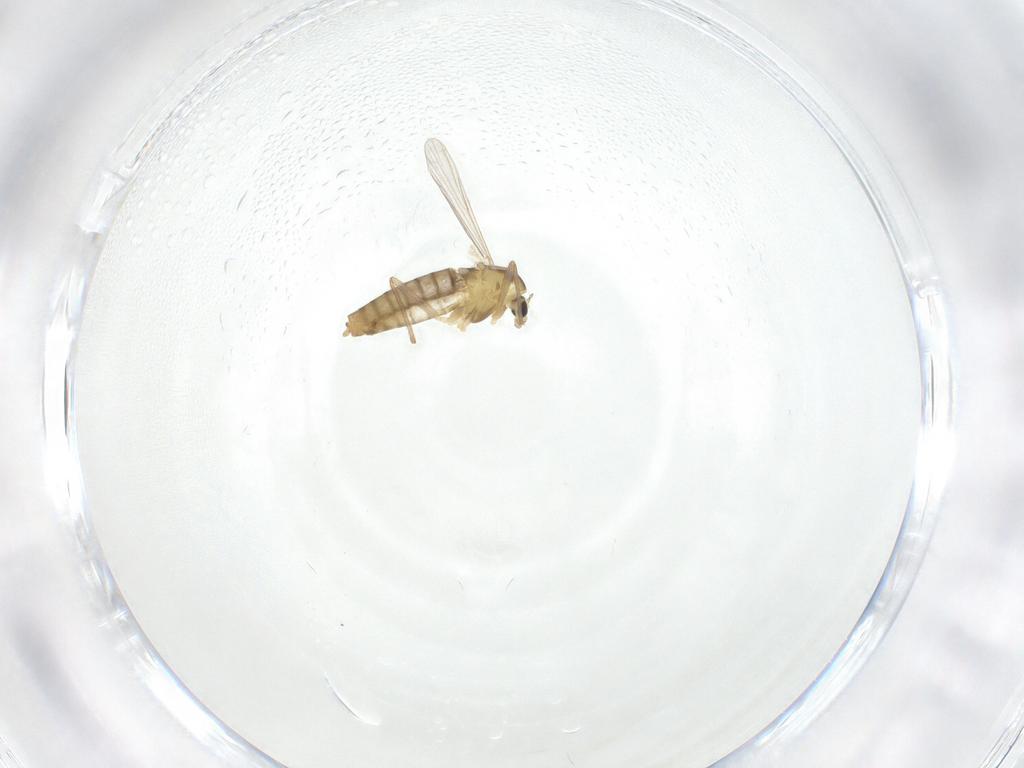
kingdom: Animalia
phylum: Arthropoda
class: Insecta
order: Diptera
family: Chironomidae
